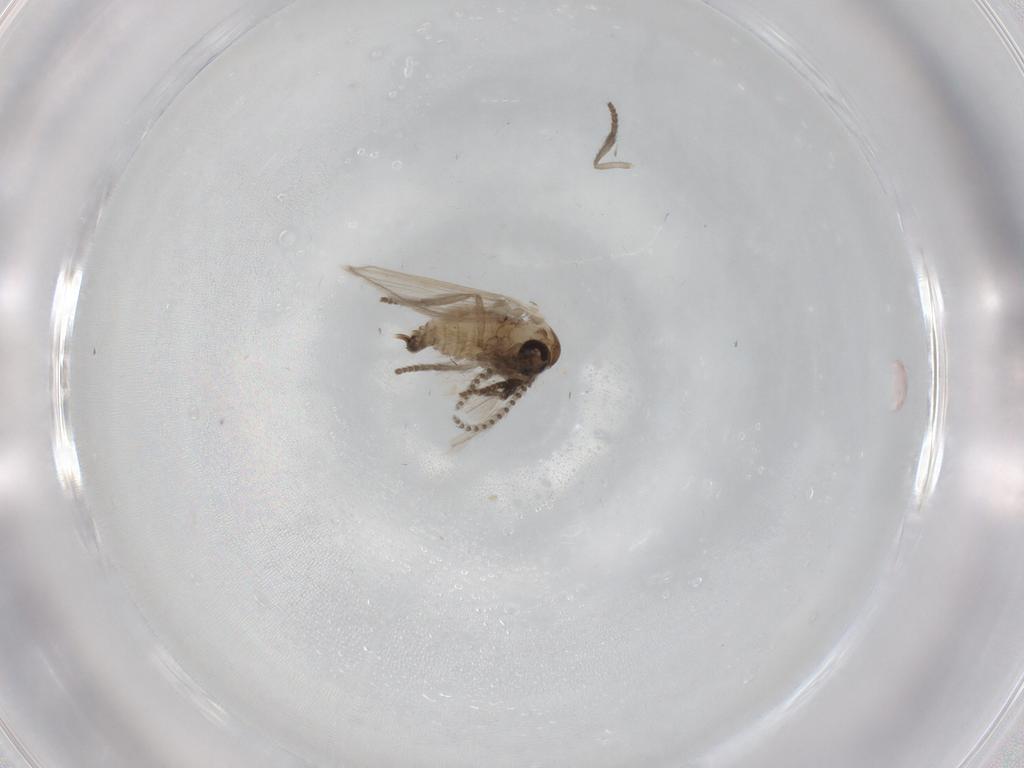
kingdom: Animalia
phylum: Arthropoda
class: Insecta
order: Diptera
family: Psychodidae
